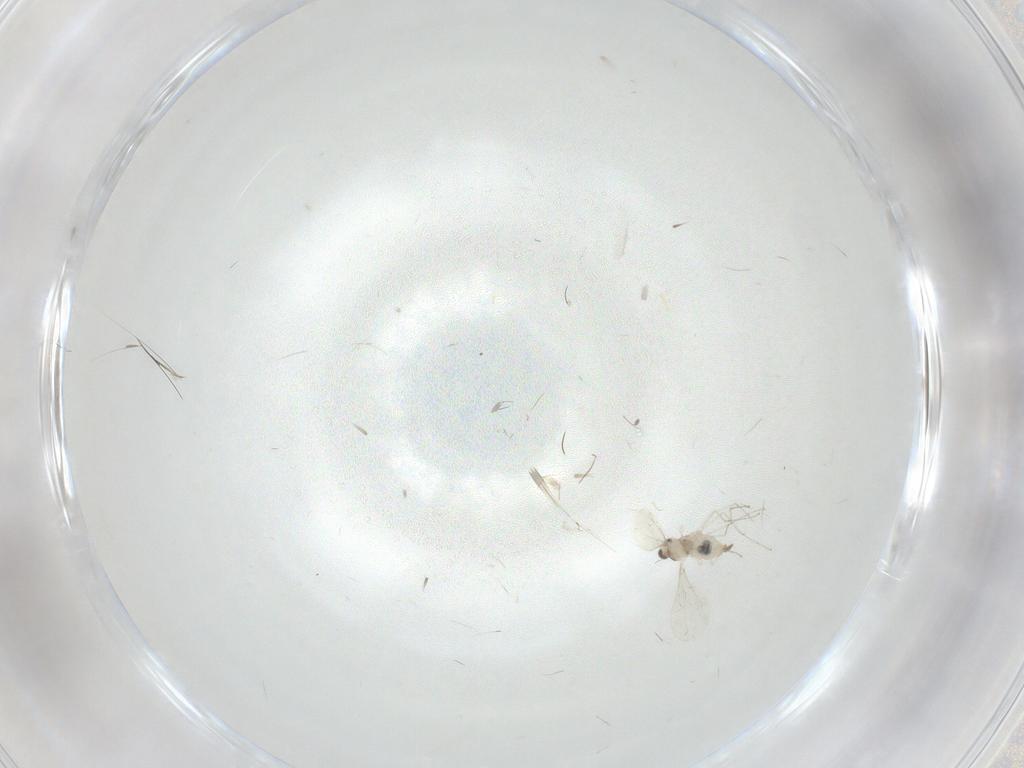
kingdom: Animalia
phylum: Arthropoda
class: Insecta
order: Diptera
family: Cecidomyiidae
